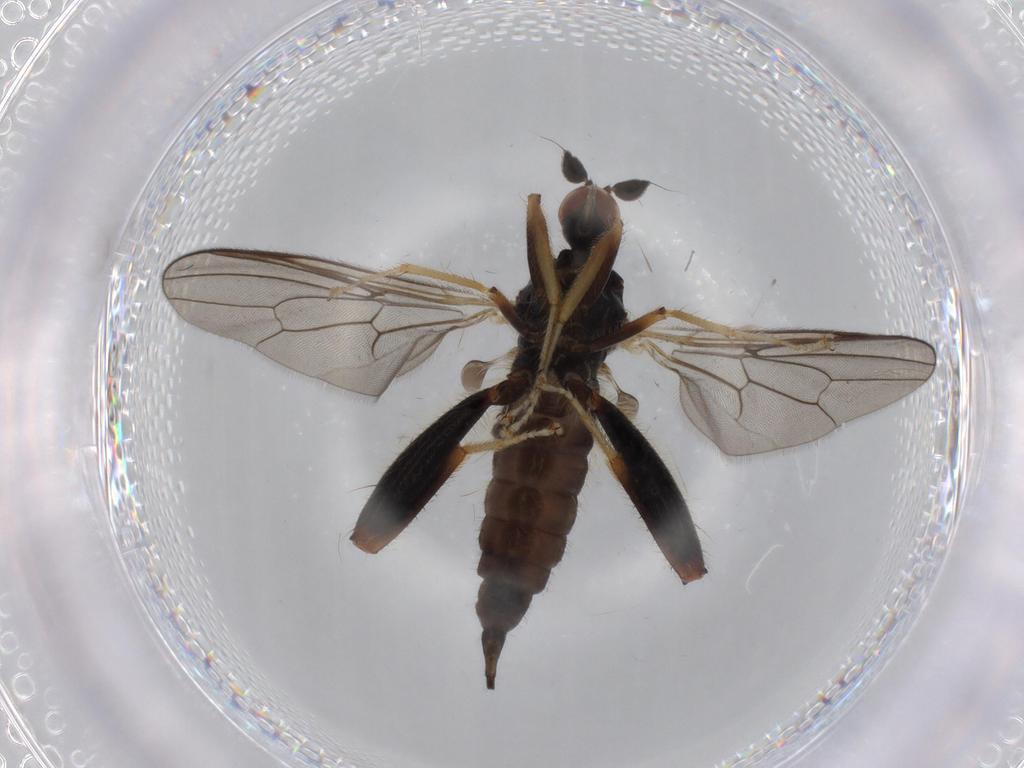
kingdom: Animalia
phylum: Arthropoda
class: Insecta
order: Diptera
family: Hybotidae
